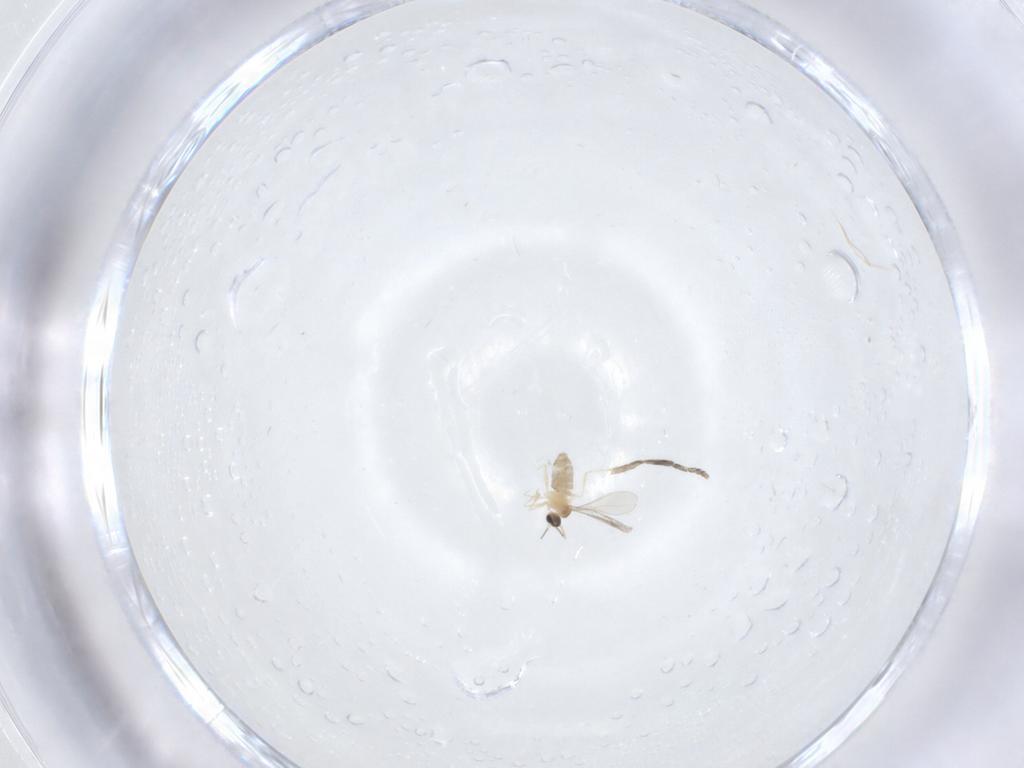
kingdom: Animalia
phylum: Arthropoda
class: Insecta
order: Diptera
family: Cecidomyiidae
